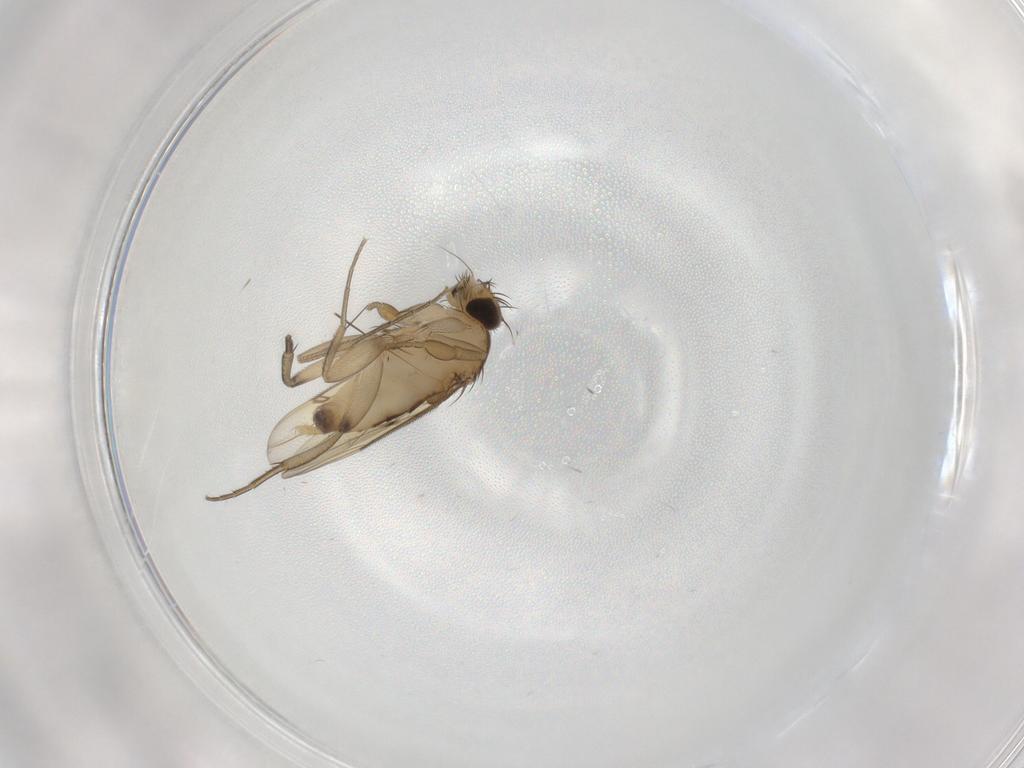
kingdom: Animalia
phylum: Arthropoda
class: Insecta
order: Diptera
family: Phoridae
